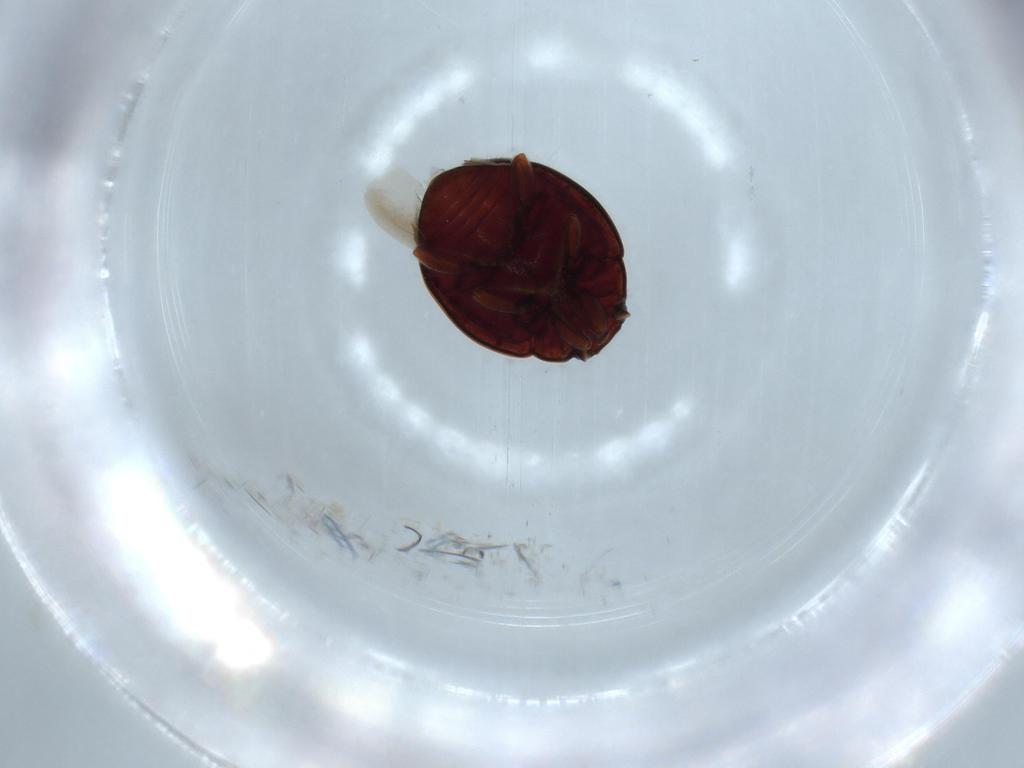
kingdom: Animalia
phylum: Arthropoda
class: Insecta
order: Coleoptera
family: Coccinellidae
